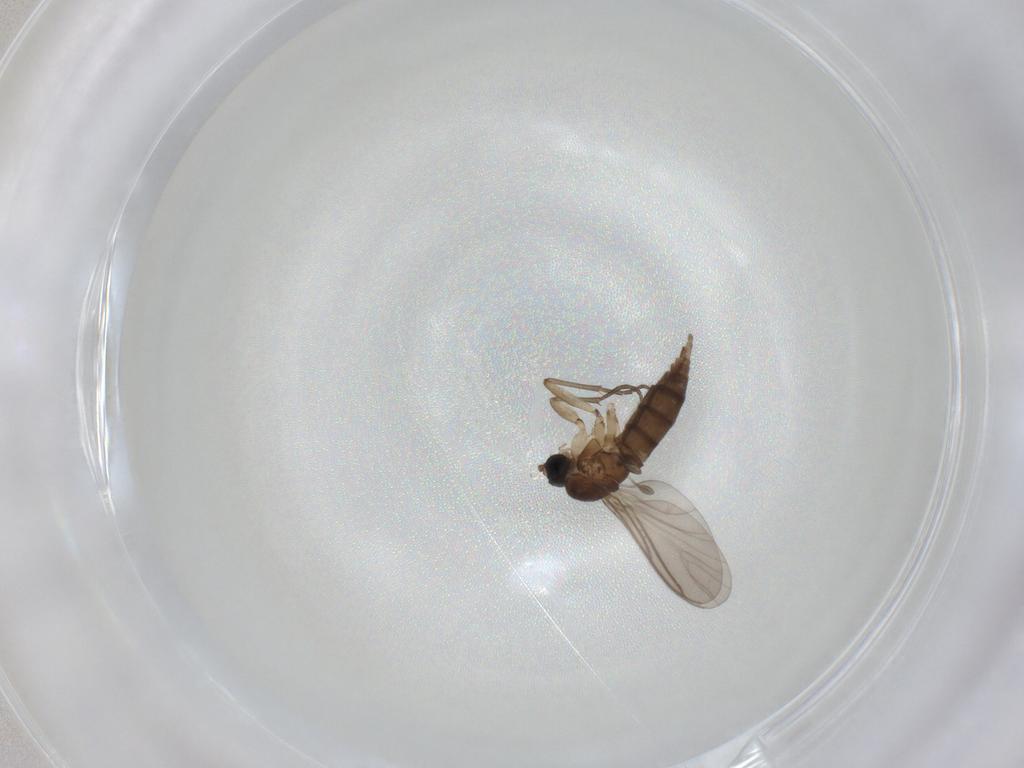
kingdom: Animalia
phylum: Arthropoda
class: Insecta
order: Diptera
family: Sciaridae
